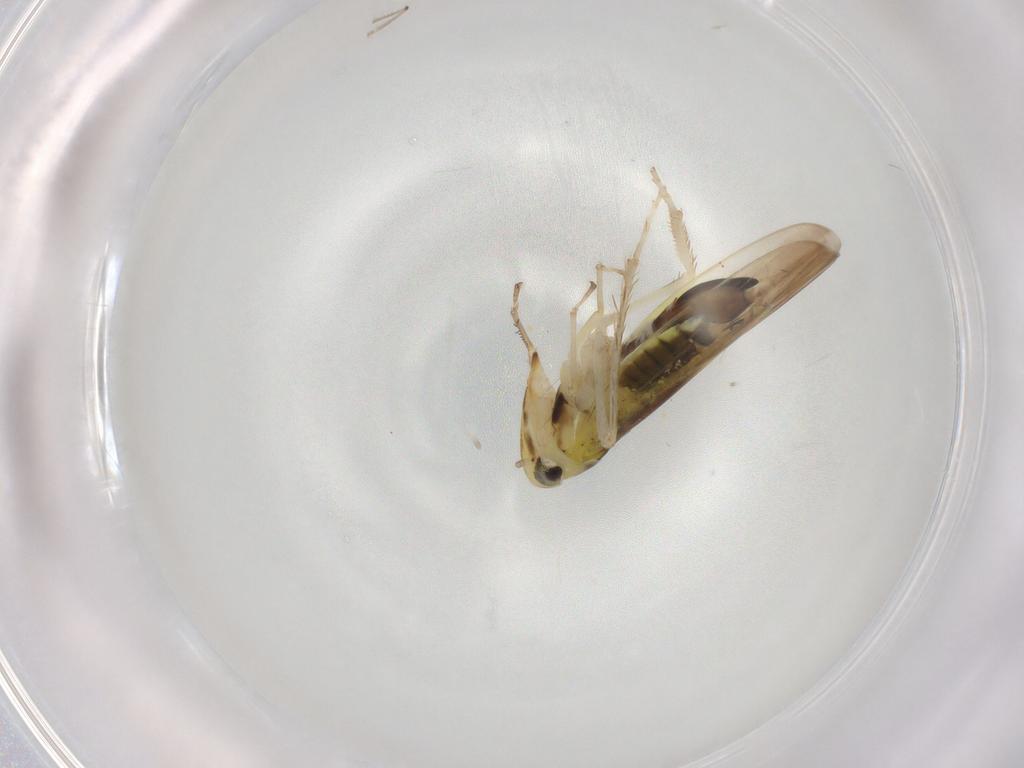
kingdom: Animalia
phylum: Arthropoda
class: Insecta
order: Hemiptera
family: Cicadellidae
